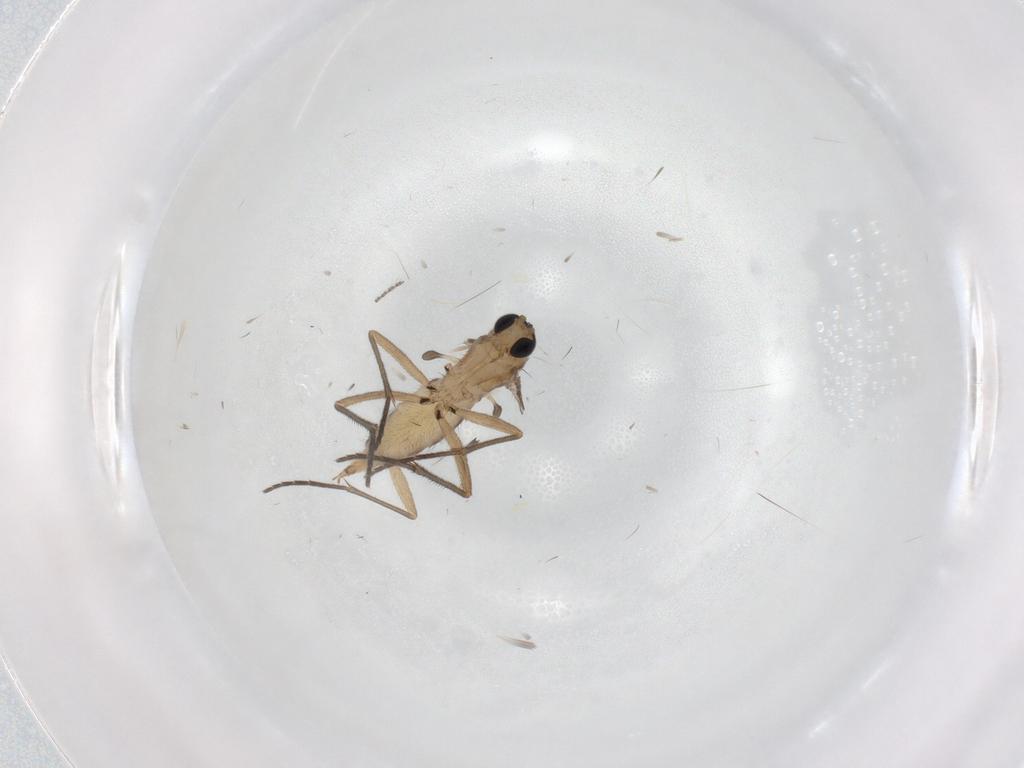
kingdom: Animalia
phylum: Arthropoda
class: Insecta
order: Diptera
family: Sciaridae
